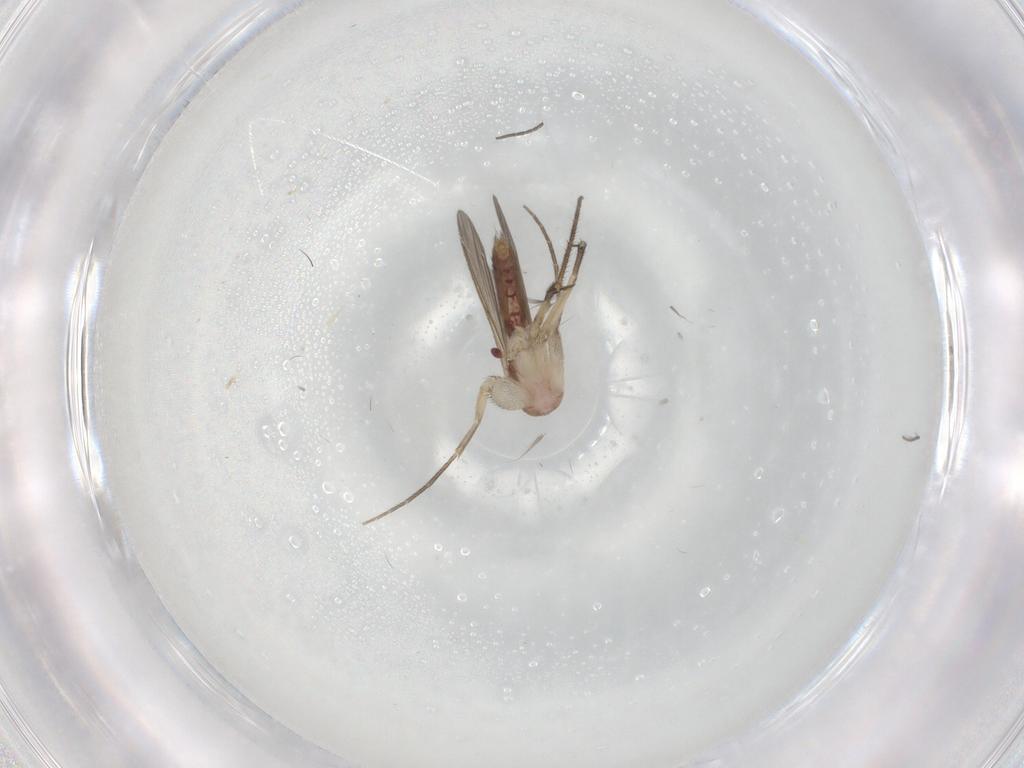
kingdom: Animalia
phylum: Arthropoda
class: Insecta
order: Diptera
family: Mycetophilidae
